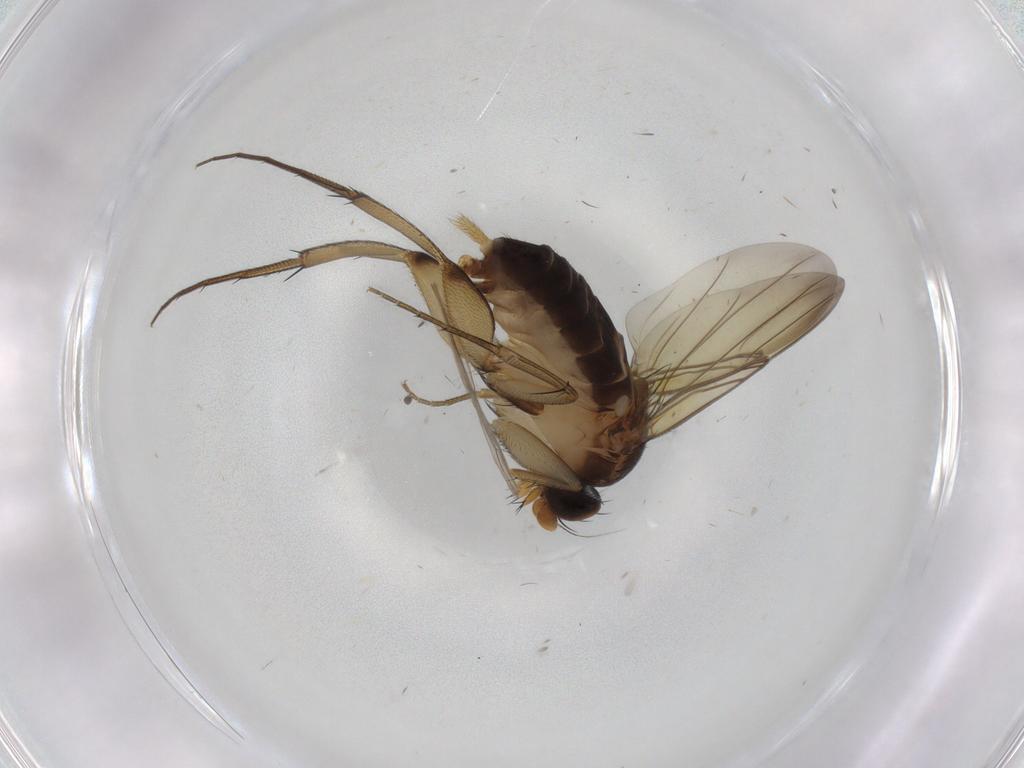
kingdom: Animalia
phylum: Arthropoda
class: Insecta
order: Diptera
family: Cecidomyiidae
